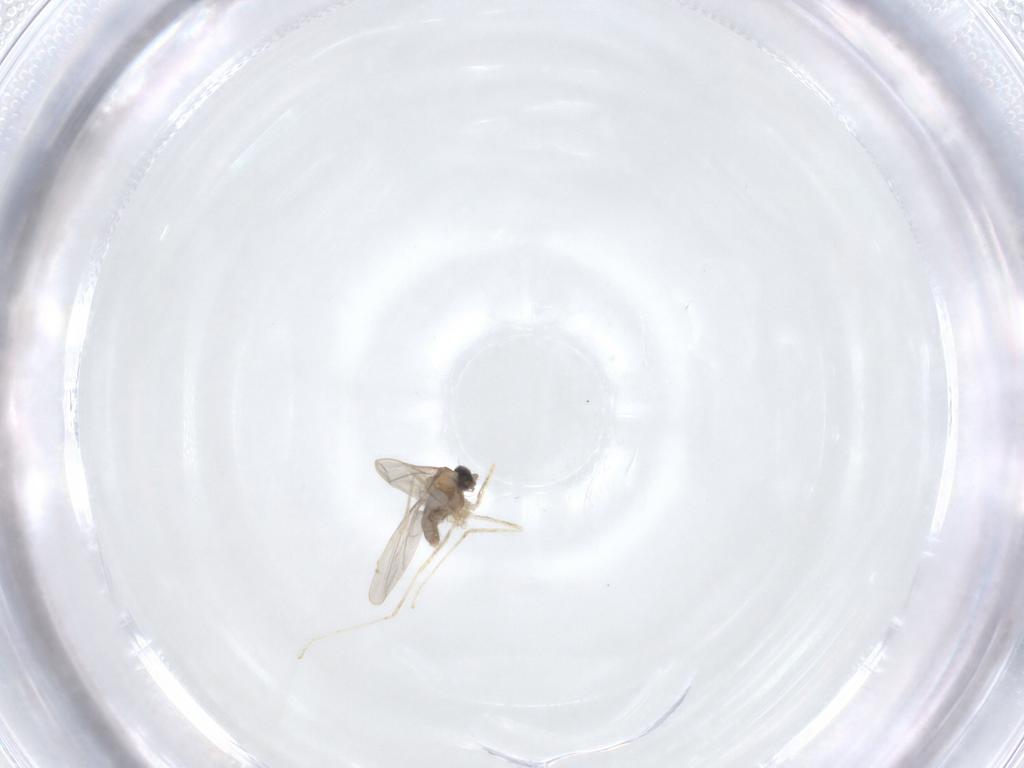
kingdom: Animalia
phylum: Arthropoda
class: Insecta
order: Diptera
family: Cecidomyiidae
